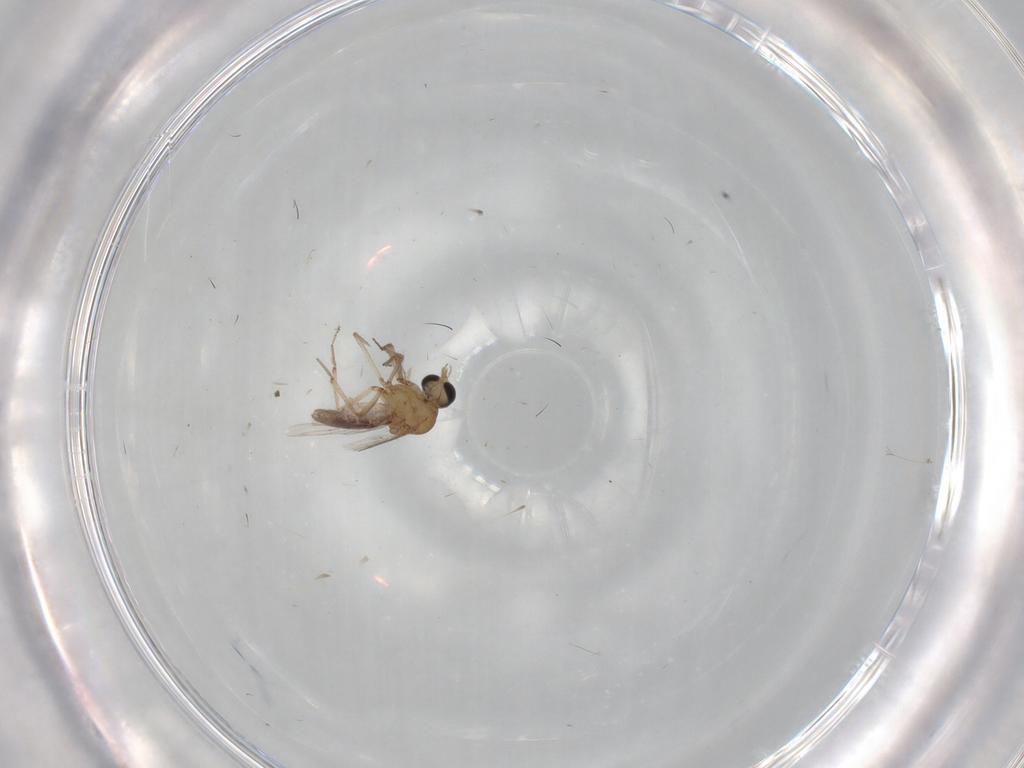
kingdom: Animalia
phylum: Arthropoda
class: Insecta
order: Diptera
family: Ceratopogonidae
